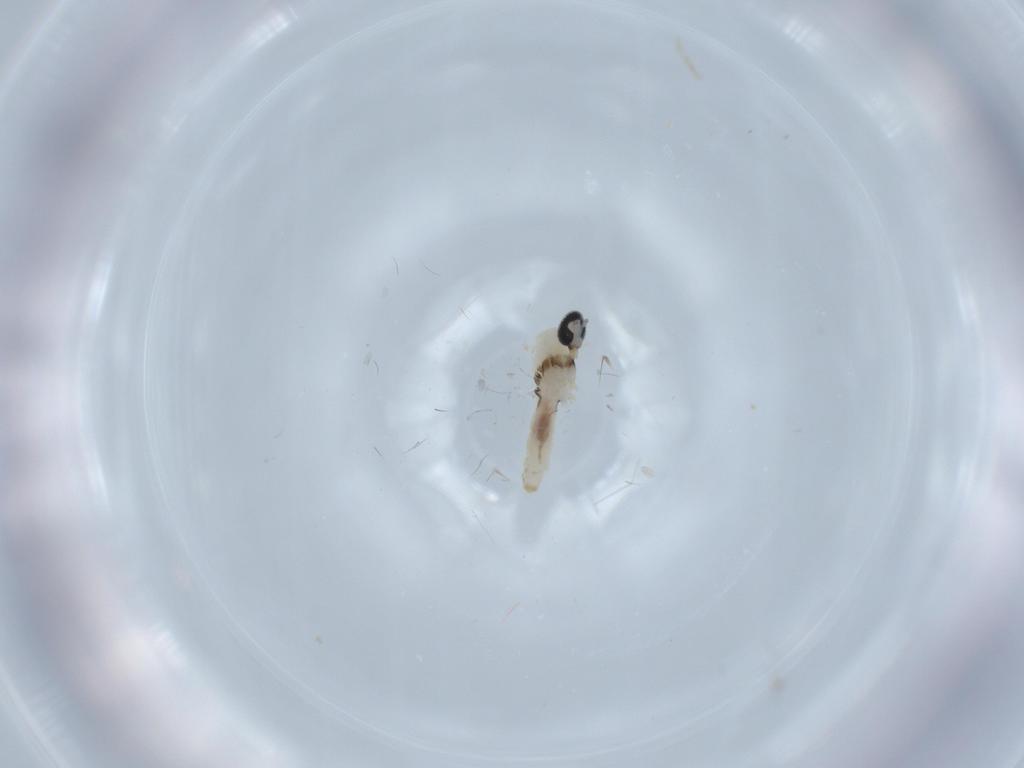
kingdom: Animalia
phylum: Arthropoda
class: Insecta
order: Diptera
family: Cecidomyiidae
